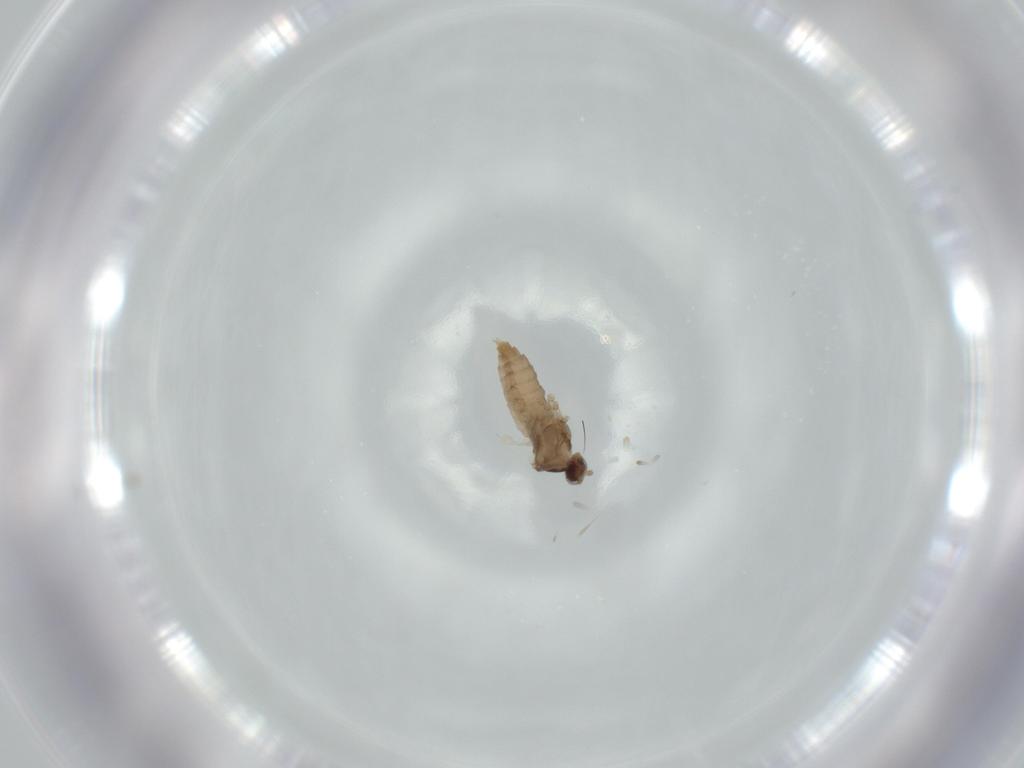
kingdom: Animalia
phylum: Arthropoda
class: Insecta
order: Diptera
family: Cecidomyiidae
